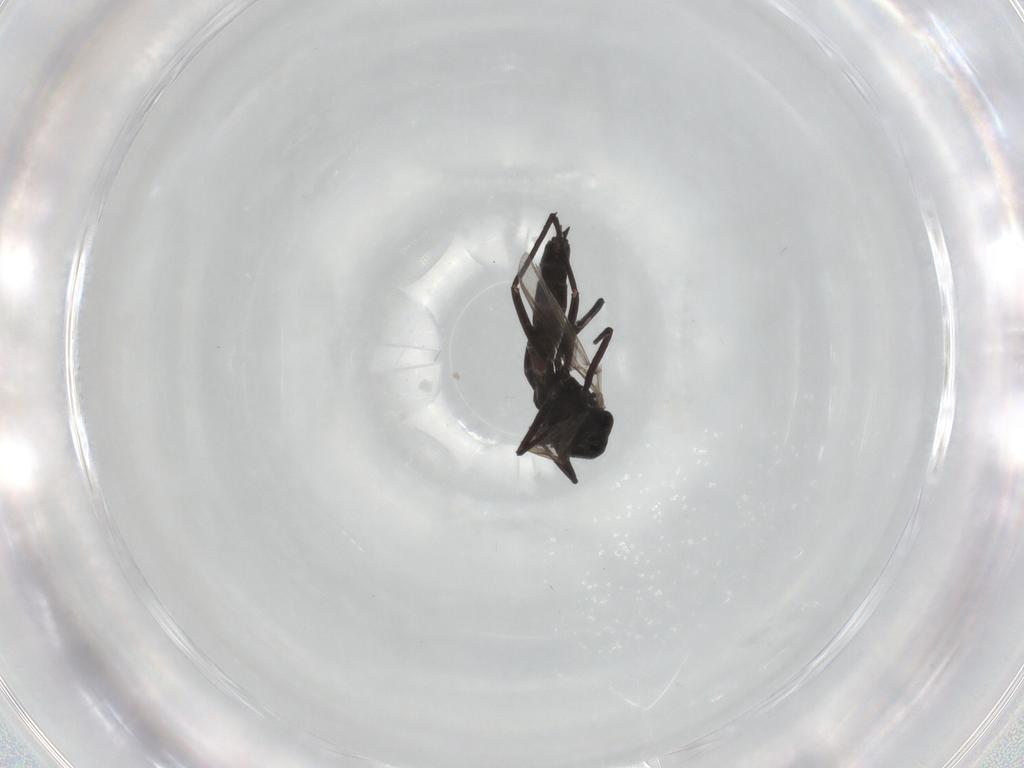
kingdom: Animalia
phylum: Arthropoda
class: Insecta
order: Diptera
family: Chironomidae
